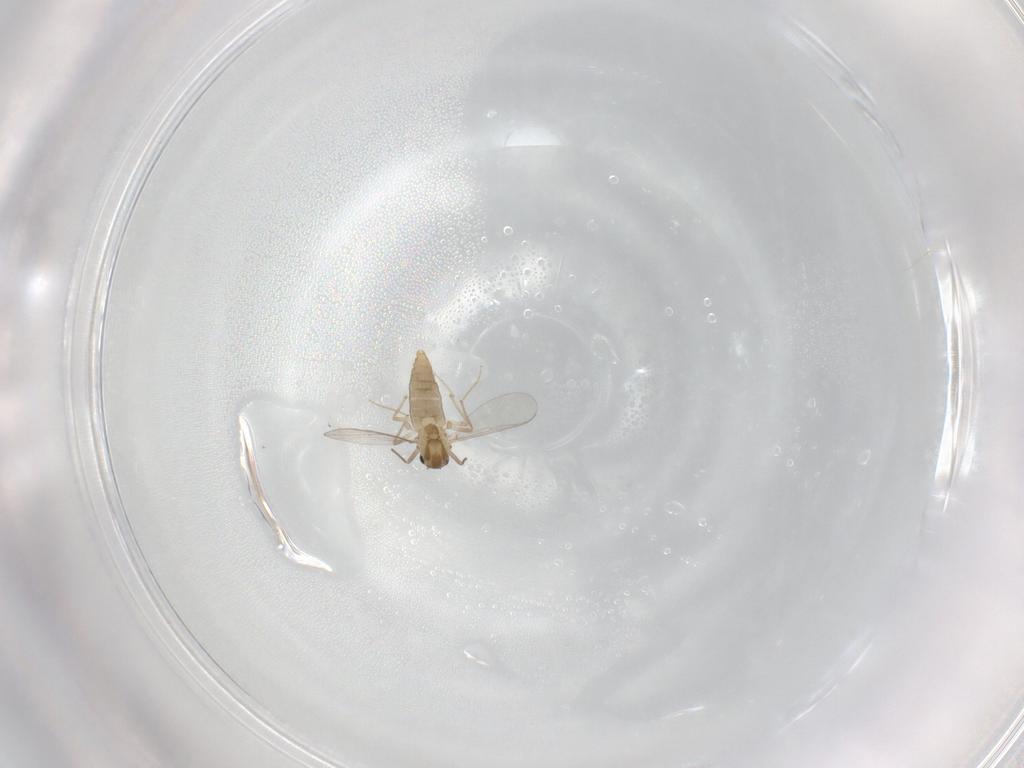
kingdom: Animalia
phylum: Arthropoda
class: Insecta
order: Diptera
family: Chironomidae
